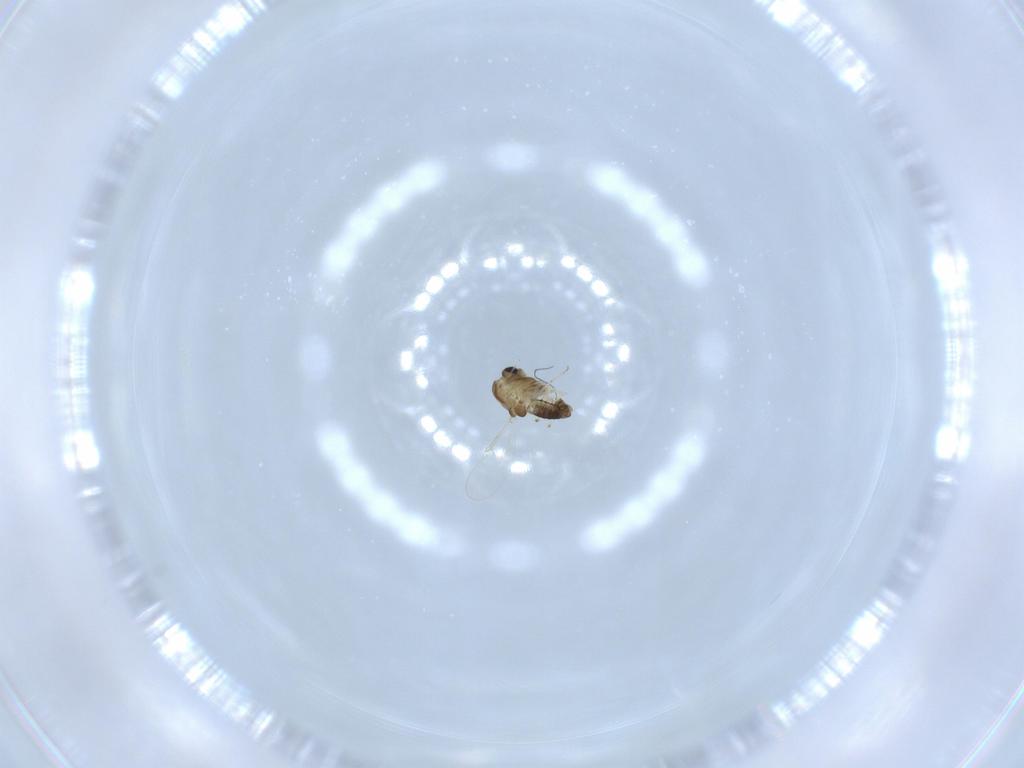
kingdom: Animalia
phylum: Arthropoda
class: Insecta
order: Diptera
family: Chironomidae
